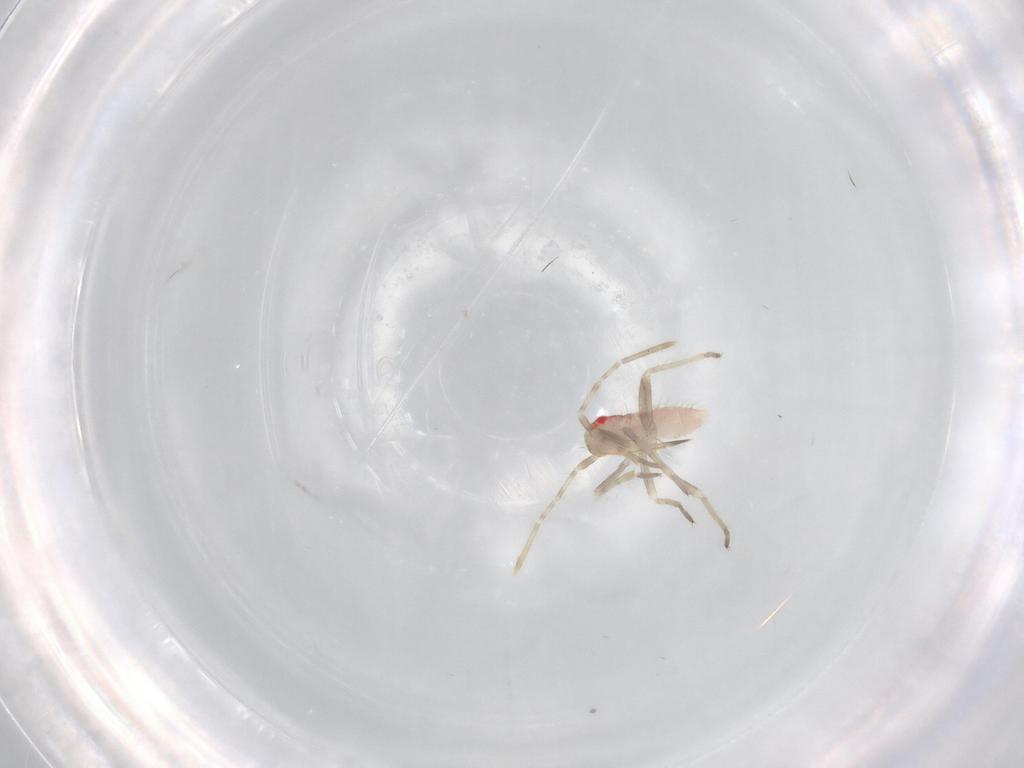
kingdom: Animalia
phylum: Arthropoda
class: Insecta
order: Hemiptera
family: Miridae
